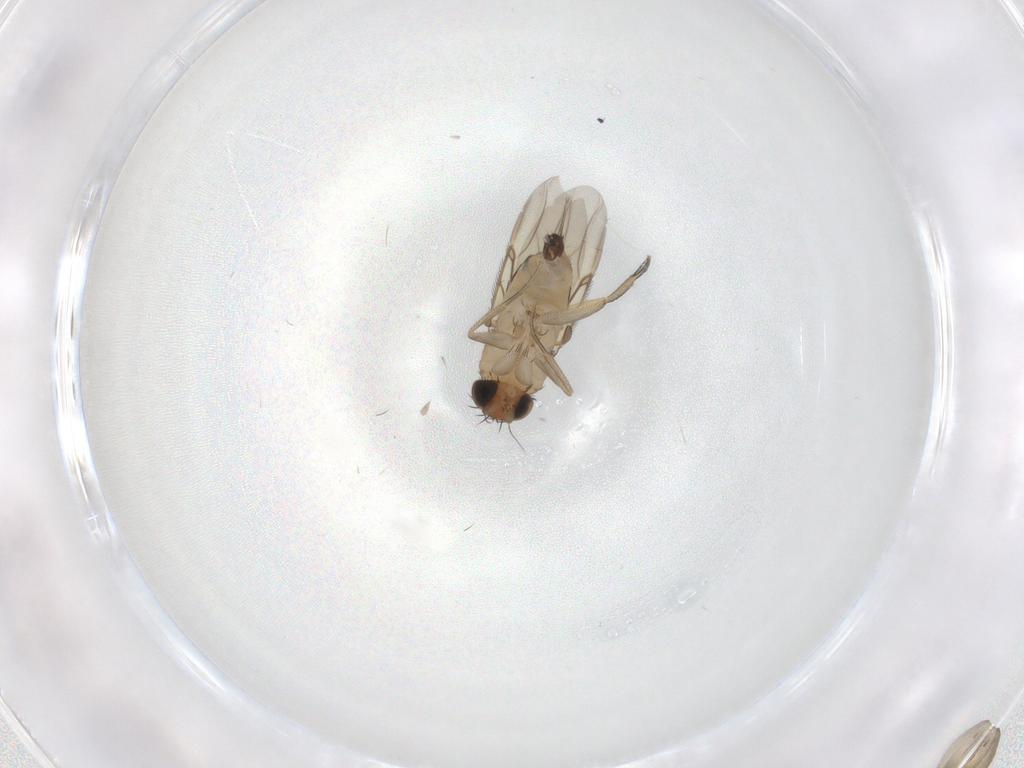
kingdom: Animalia
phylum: Arthropoda
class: Insecta
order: Diptera
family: Phoridae
